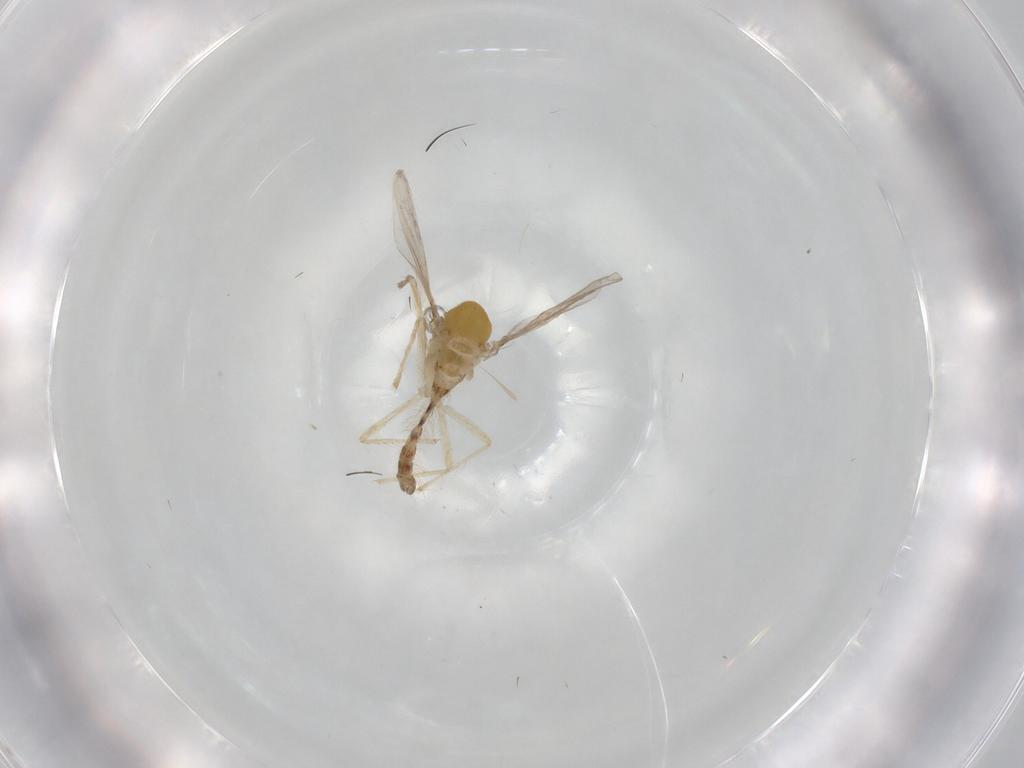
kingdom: Animalia
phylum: Arthropoda
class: Insecta
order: Diptera
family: Chironomidae
